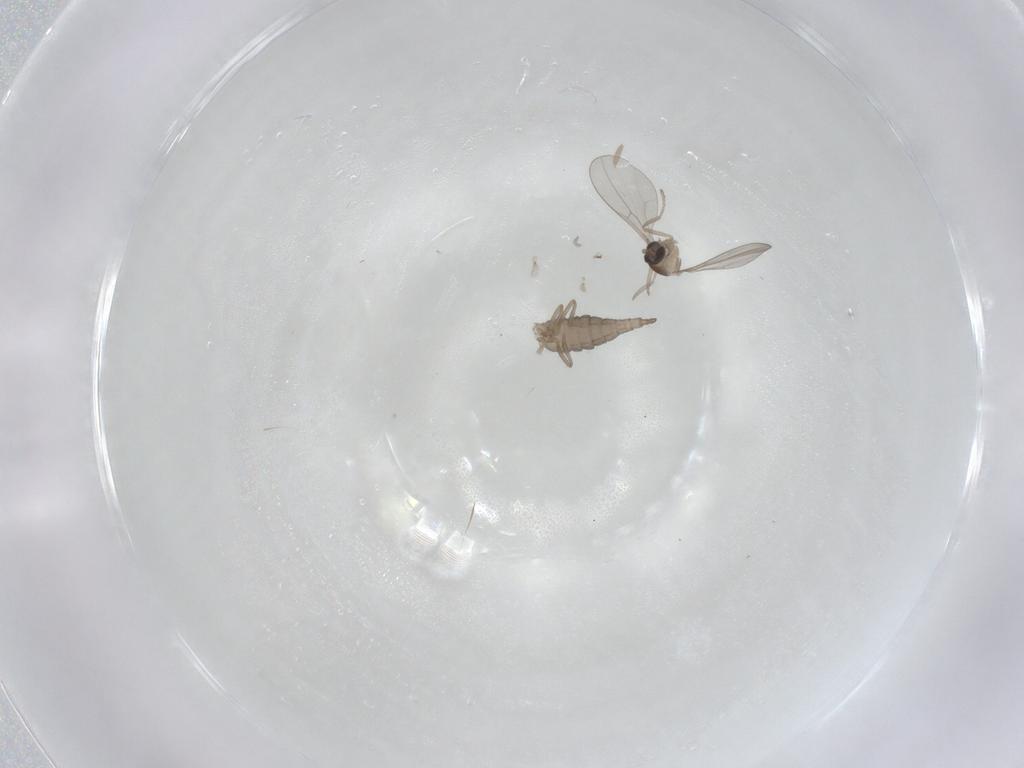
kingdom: Animalia
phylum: Arthropoda
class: Insecta
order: Diptera
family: Cecidomyiidae
